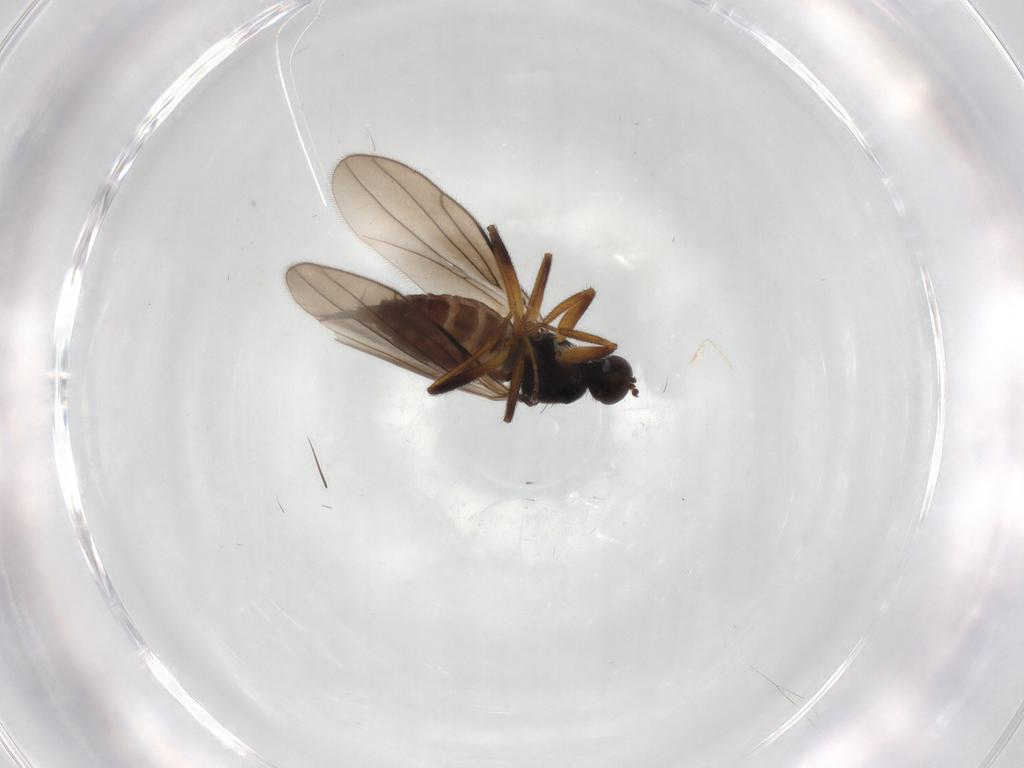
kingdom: Animalia
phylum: Arthropoda
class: Insecta
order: Diptera
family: Hybotidae
